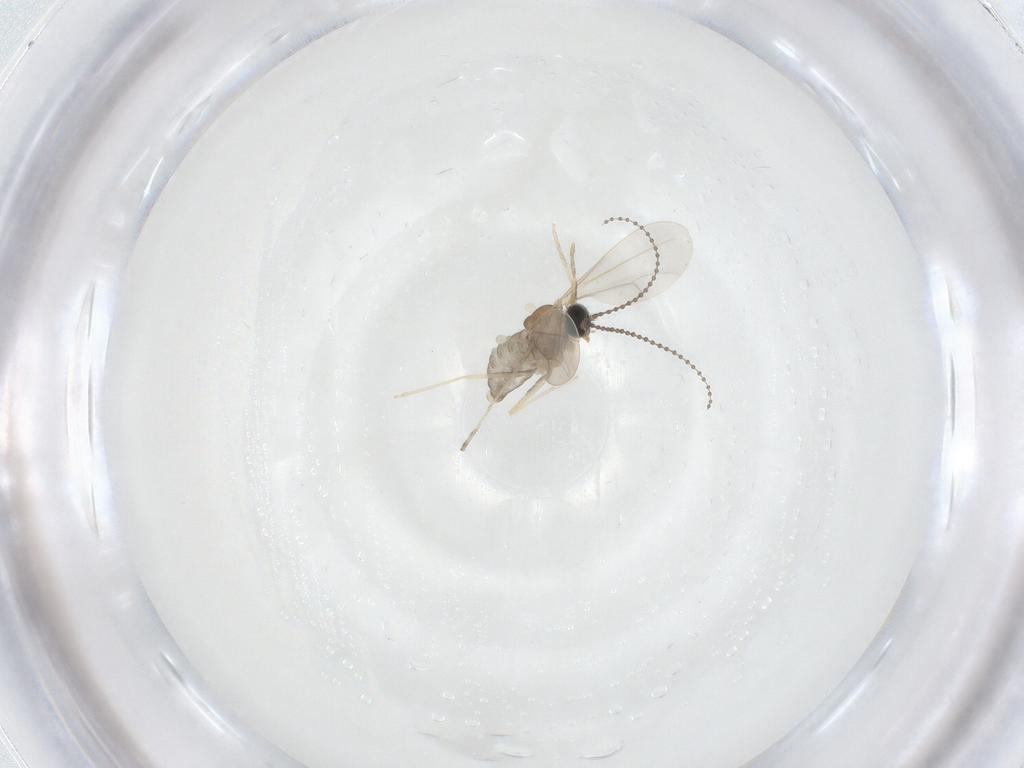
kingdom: Animalia
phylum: Arthropoda
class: Insecta
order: Diptera
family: Cecidomyiidae
